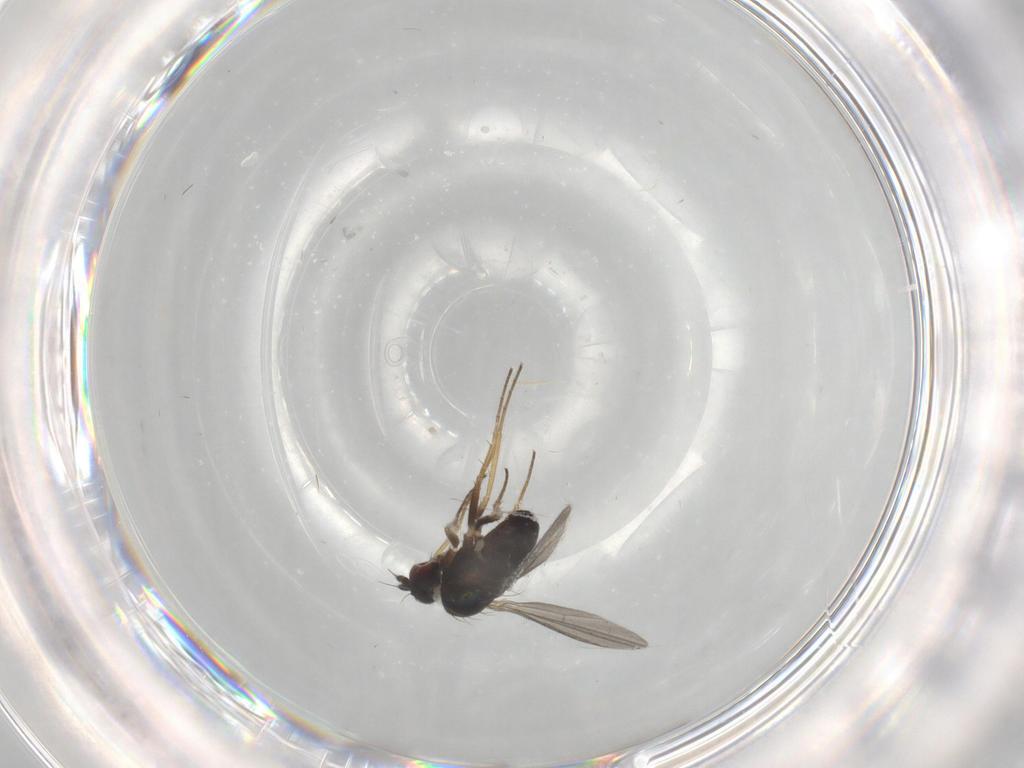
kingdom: Animalia
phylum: Arthropoda
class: Insecta
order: Diptera
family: Dolichopodidae
